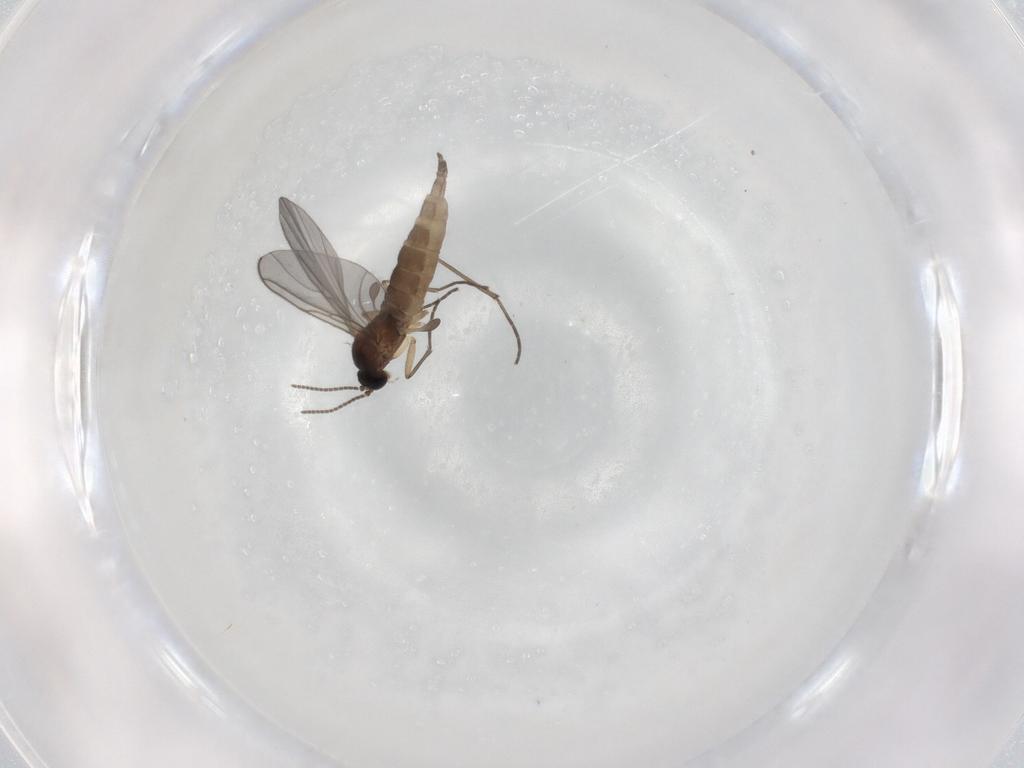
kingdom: Animalia
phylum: Arthropoda
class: Insecta
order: Diptera
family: Sciaridae
